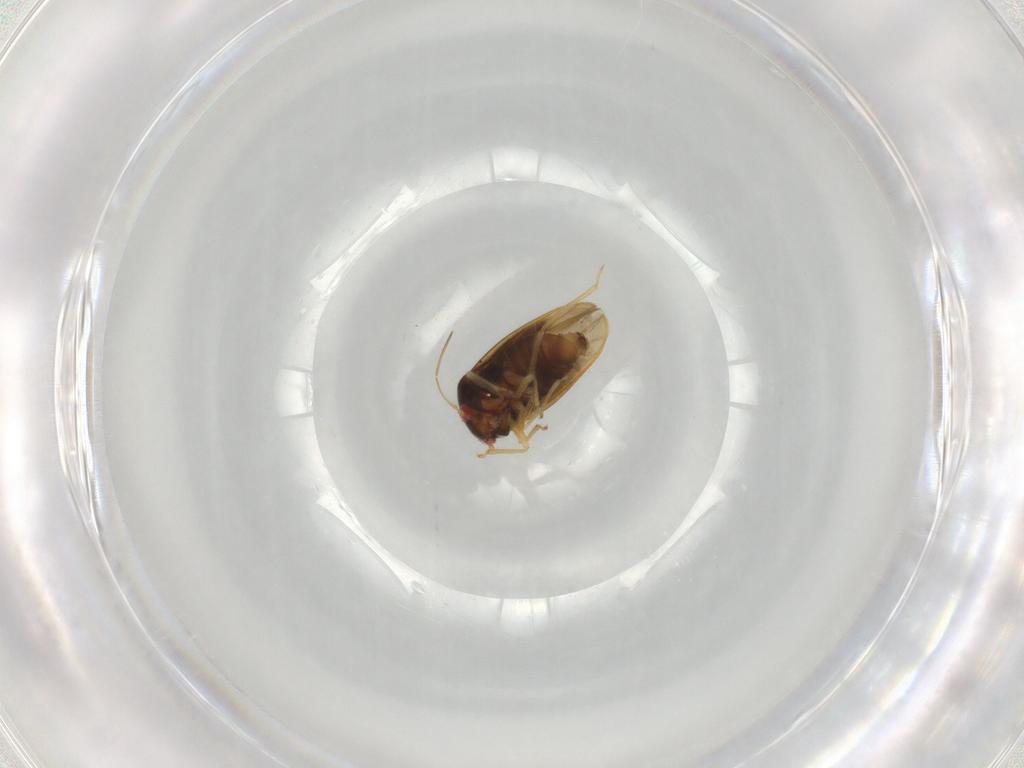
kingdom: Animalia
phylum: Arthropoda
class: Insecta
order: Hemiptera
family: Schizopteridae
